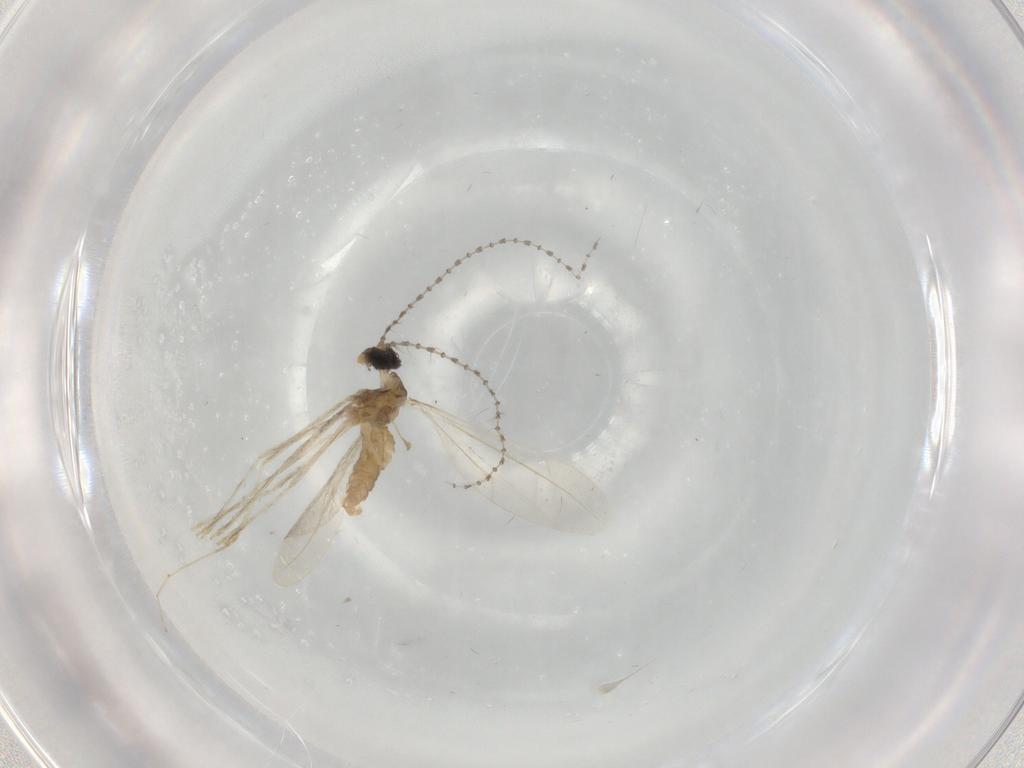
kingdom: Animalia
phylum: Arthropoda
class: Insecta
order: Diptera
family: Cecidomyiidae
